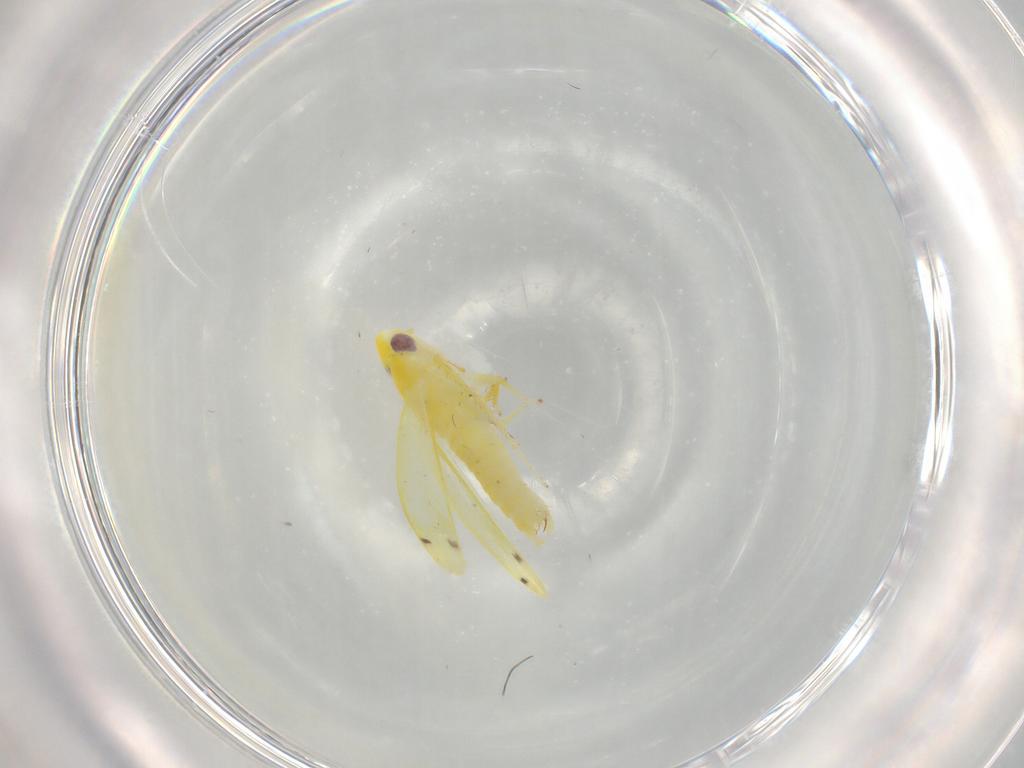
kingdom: Animalia
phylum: Arthropoda
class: Insecta
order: Hemiptera
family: Cicadellidae
